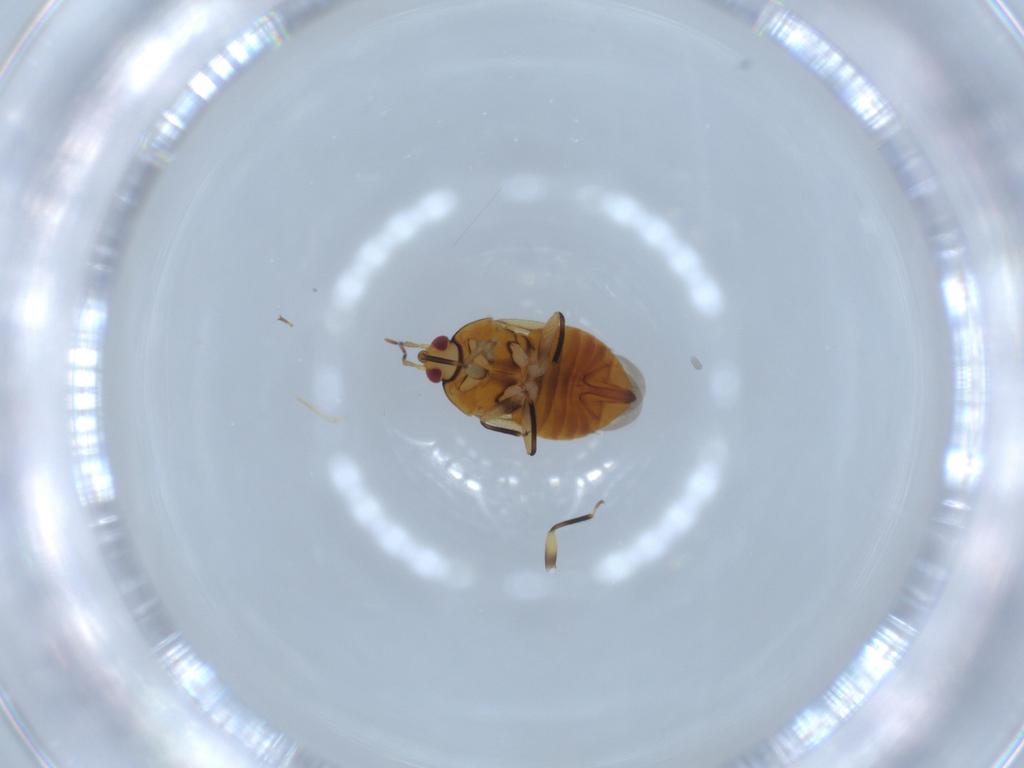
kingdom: Animalia
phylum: Arthropoda
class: Insecta
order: Hemiptera
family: Anthocoridae
